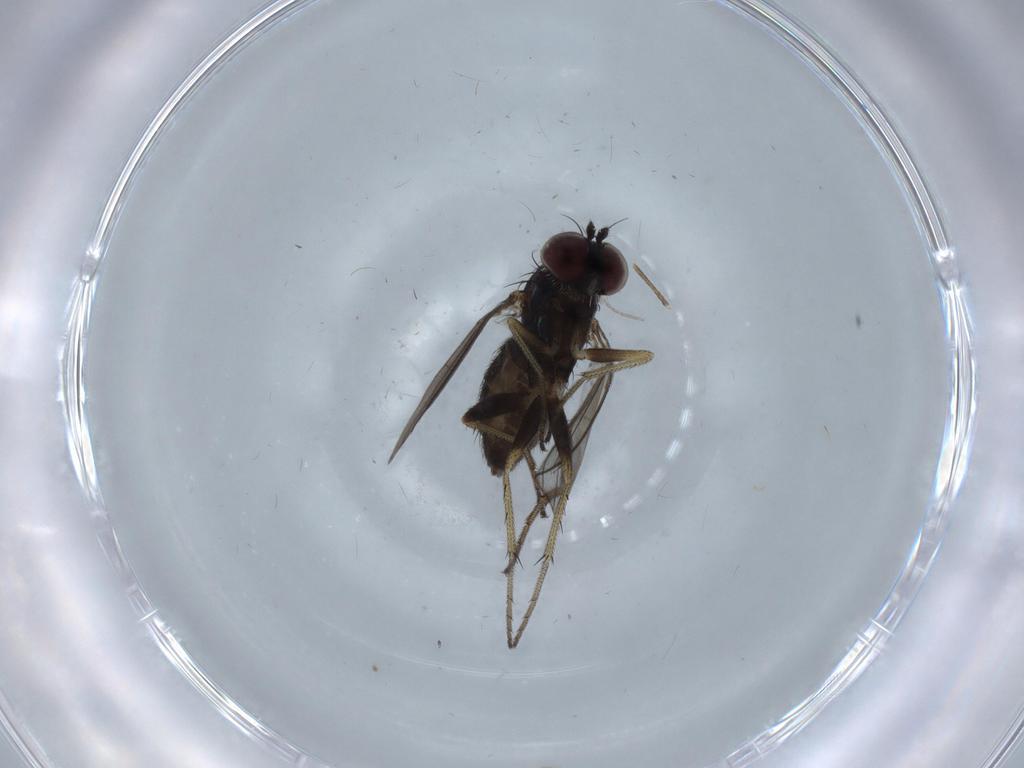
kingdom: Animalia
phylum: Arthropoda
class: Insecta
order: Diptera
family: Chironomidae
